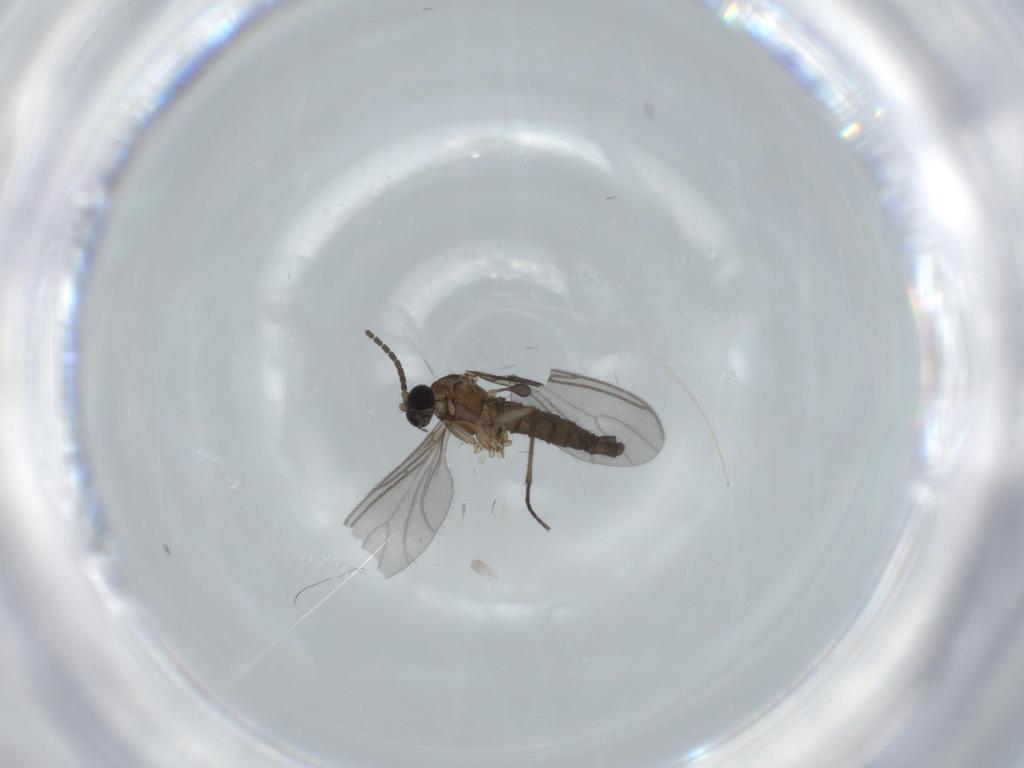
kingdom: Animalia
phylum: Arthropoda
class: Insecta
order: Diptera
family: Sciaridae
